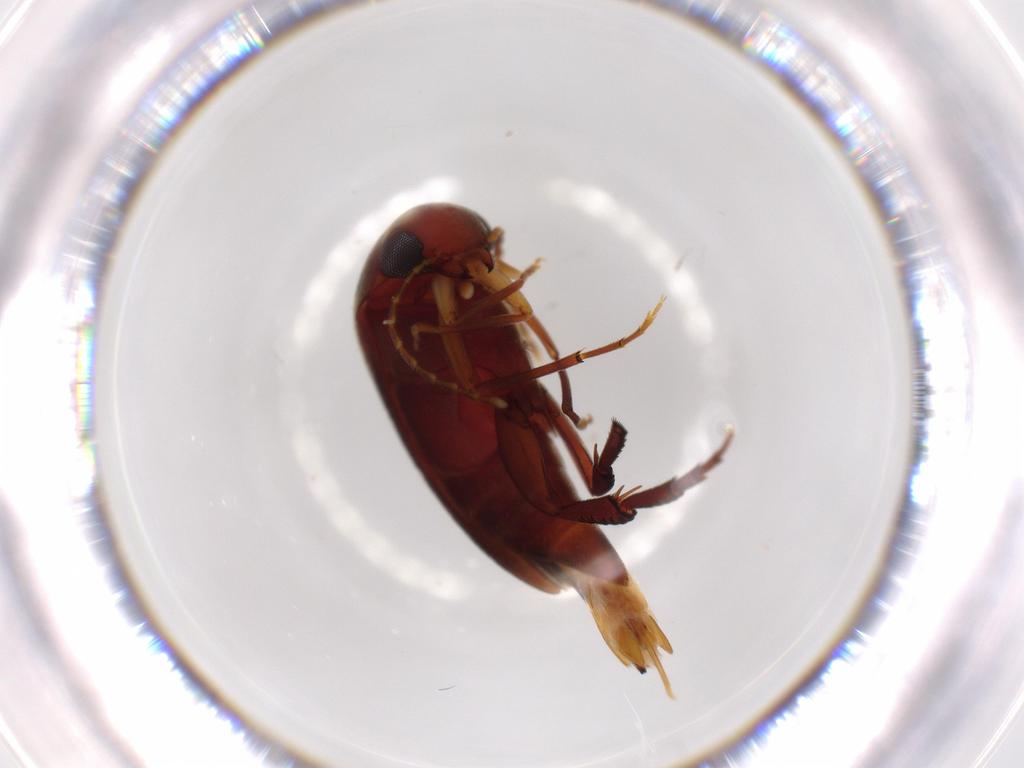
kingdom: Animalia
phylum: Arthropoda
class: Insecta
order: Coleoptera
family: Mordellidae
